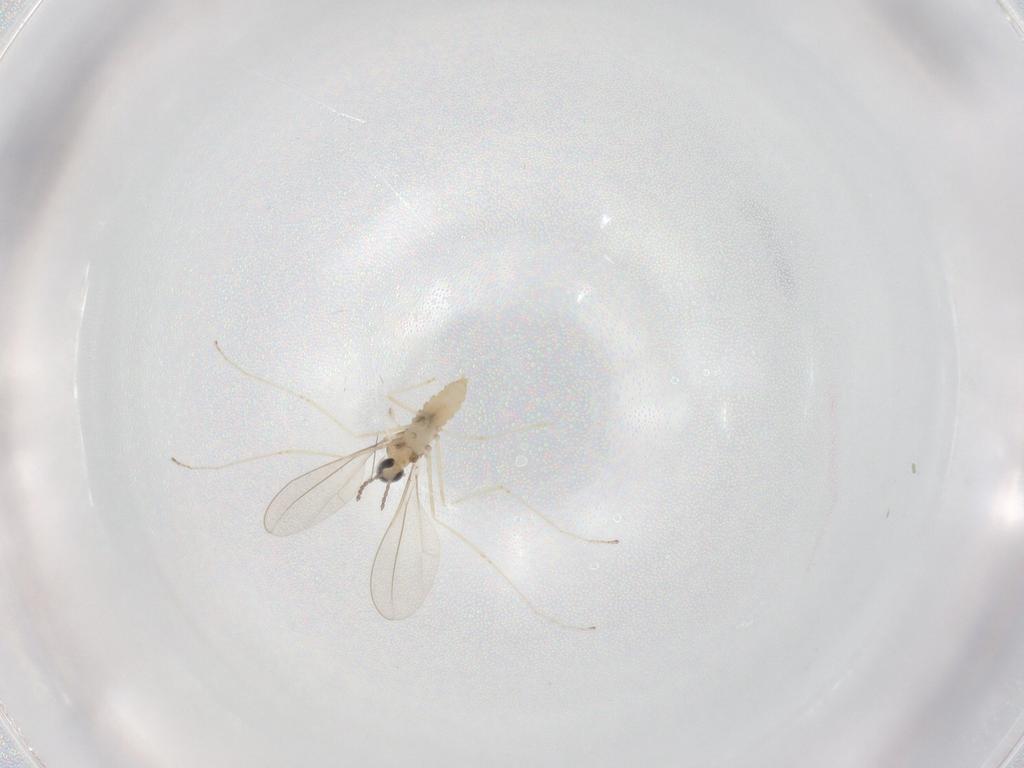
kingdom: Animalia
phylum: Arthropoda
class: Insecta
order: Diptera
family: Cecidomyiidae
